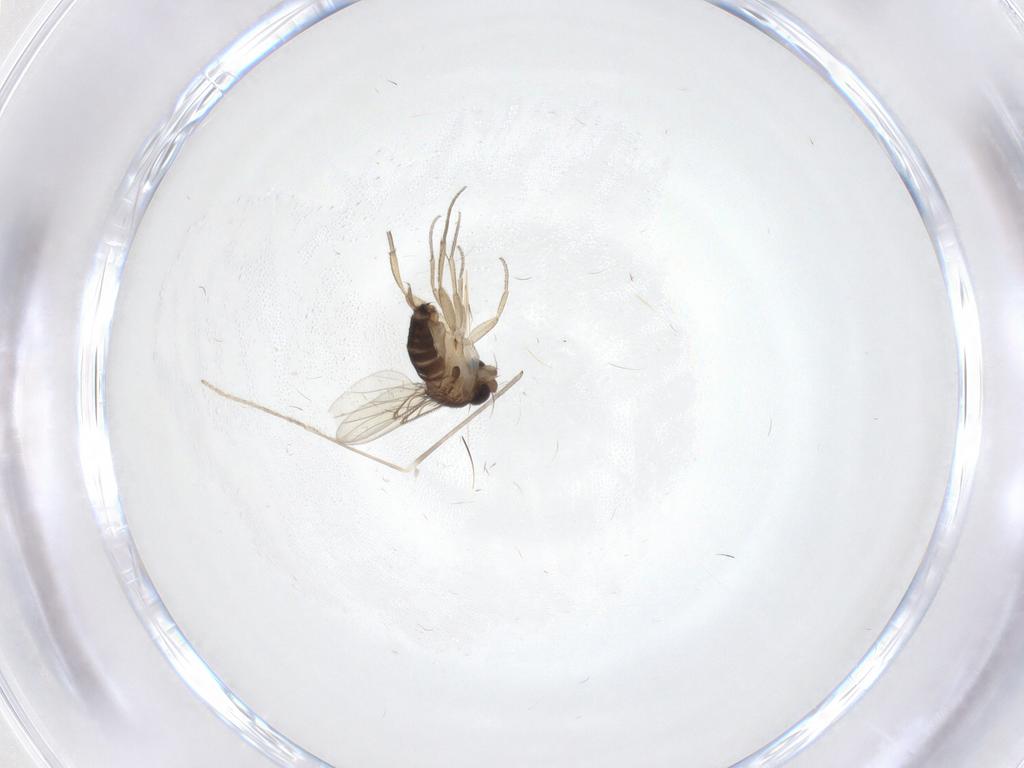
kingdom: Animalia
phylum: Arthropoda
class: Insecta
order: Diptera
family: Limoniidae
